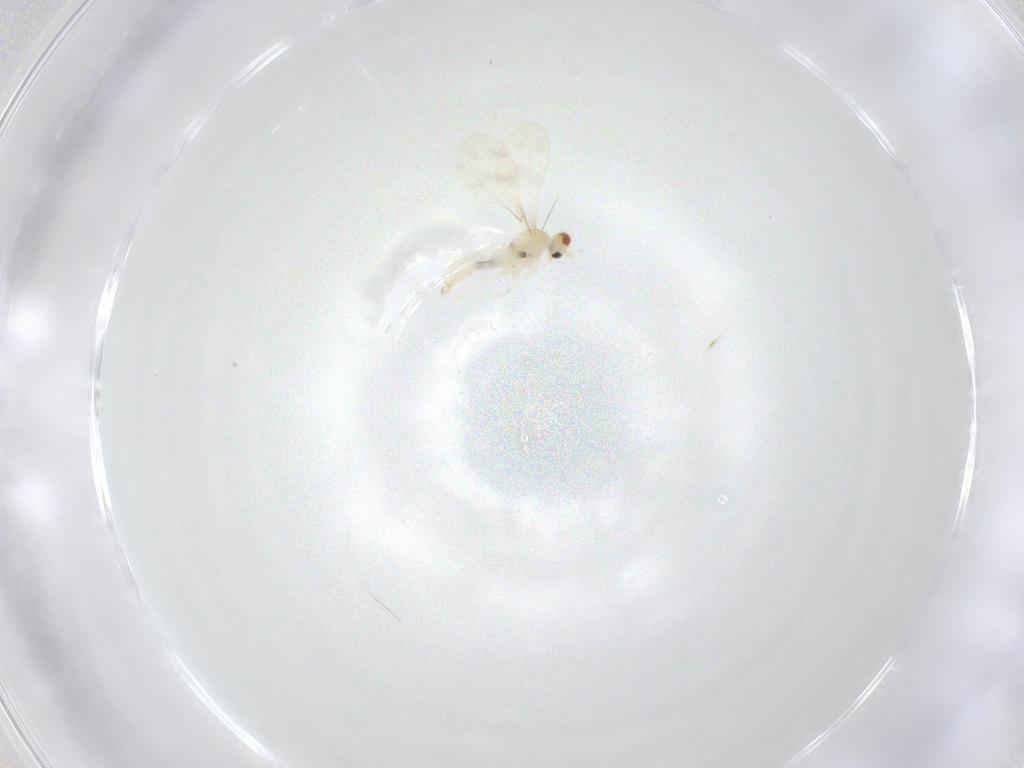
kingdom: Animalia
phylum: Arthropoda
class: Insecta
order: Diptera
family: Cecidomyiidae
